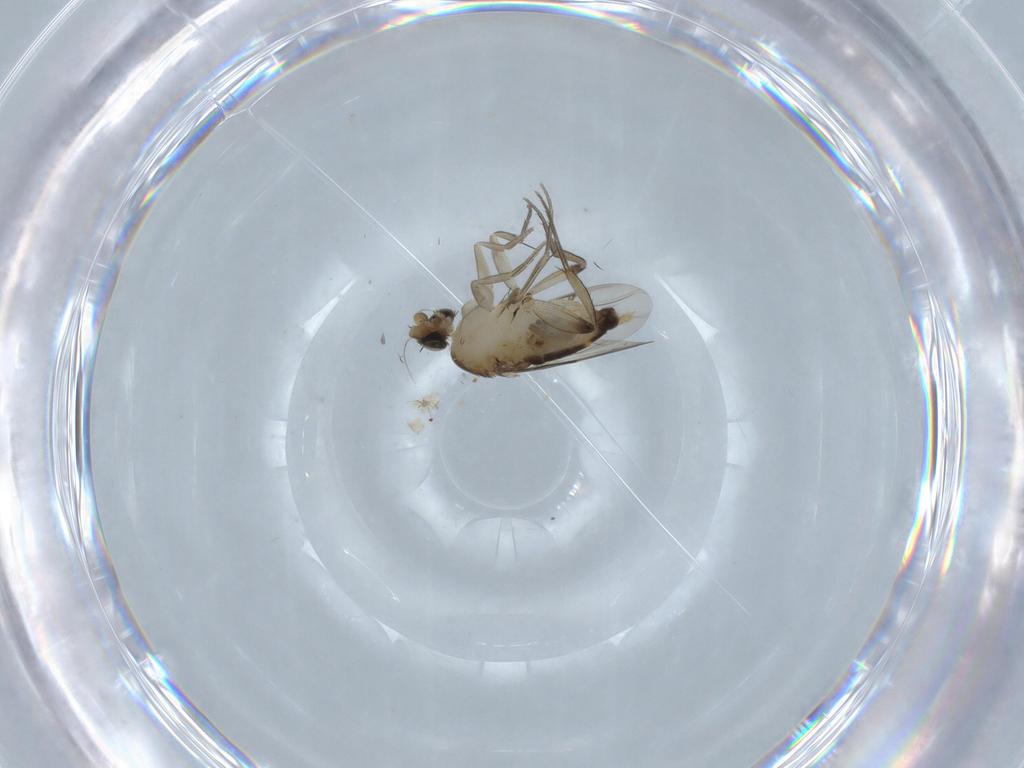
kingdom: Animalia
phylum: Arthropoda
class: Insecta
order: Diptera
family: Phoridae
